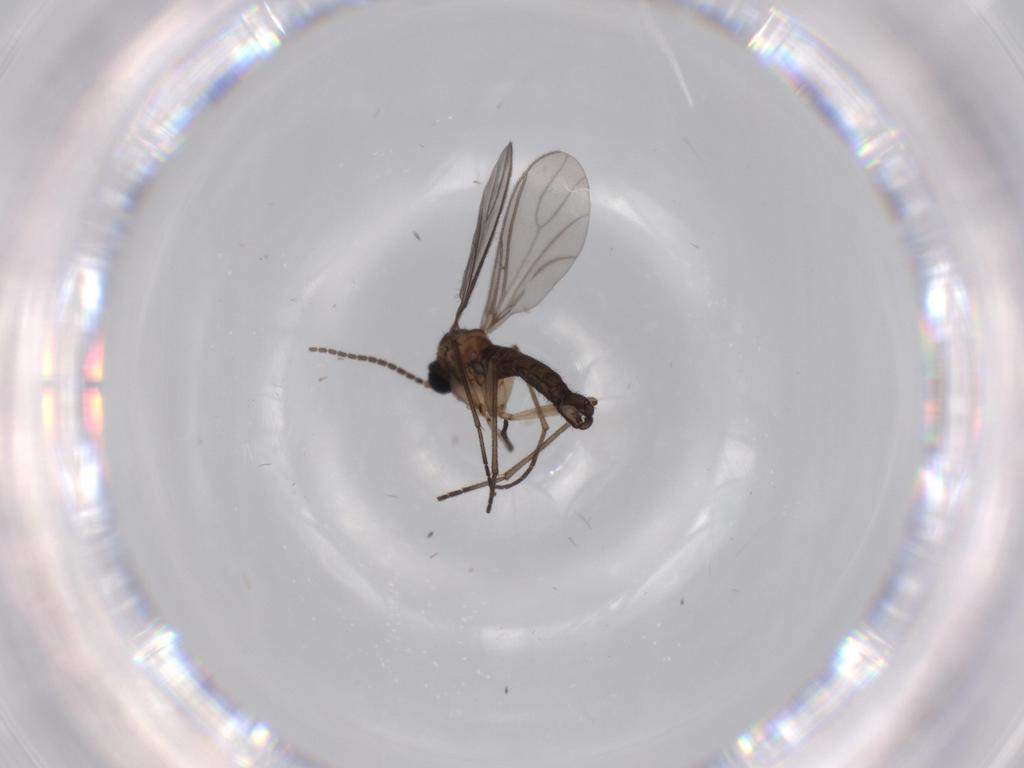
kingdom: Animalia
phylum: Arthropoda
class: Insecta
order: Diptera
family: Sciaridae
